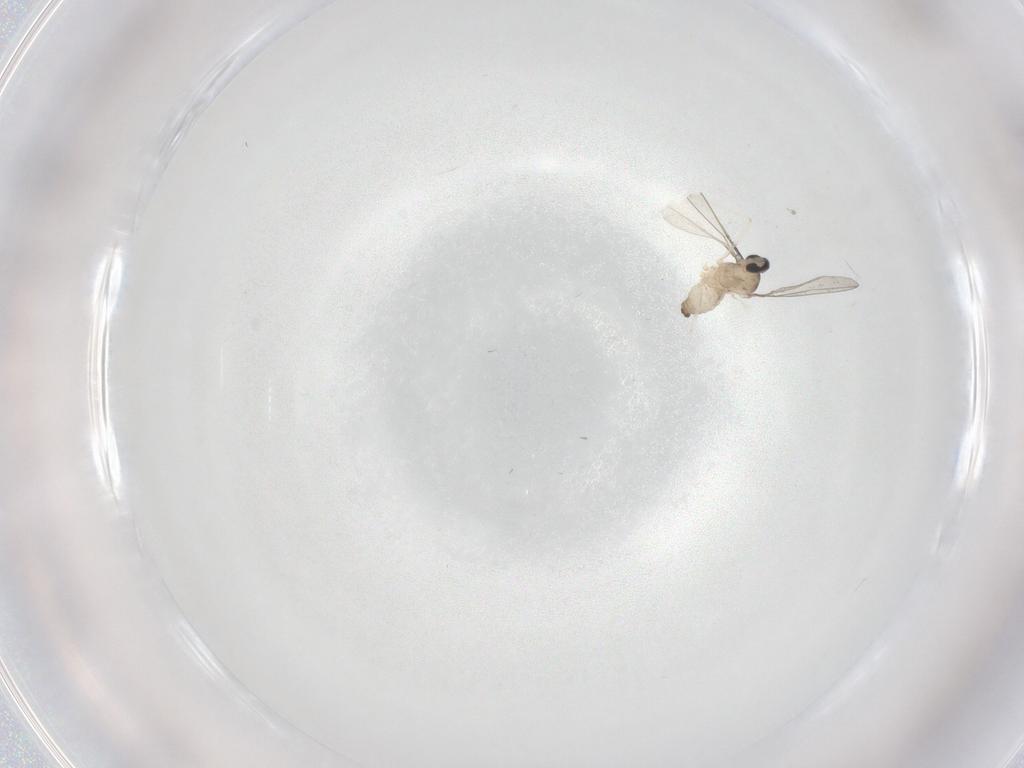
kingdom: Animalia
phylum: Arthropoda
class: Insecta
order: Diptera
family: Cecidomyiidae
